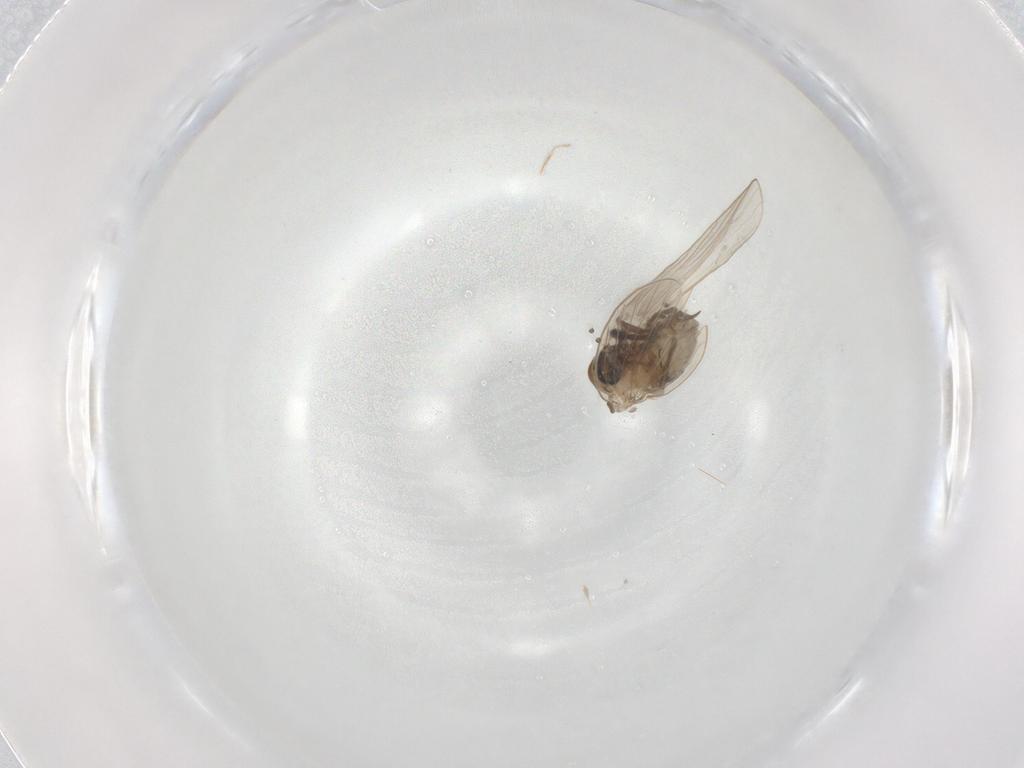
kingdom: Animalia
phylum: Arthropoda
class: Insecta
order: Diptera
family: Psychodidae
